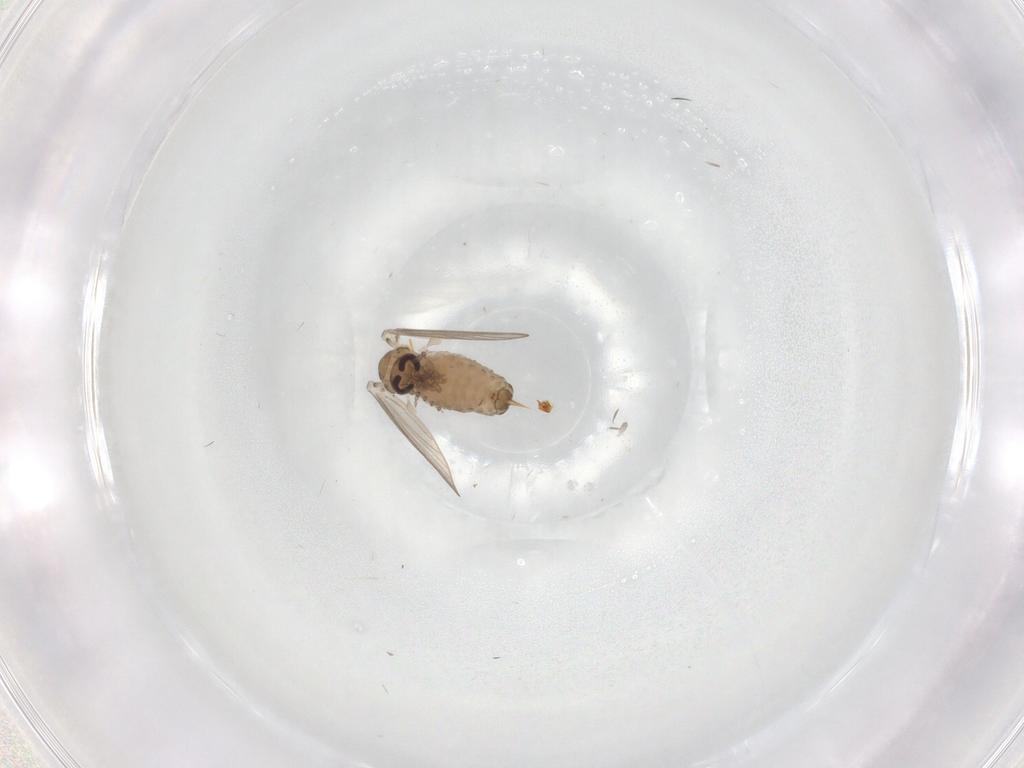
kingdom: Animalia
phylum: Arthropoda
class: Insecta
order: Diptera
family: Ceratopogonidae
